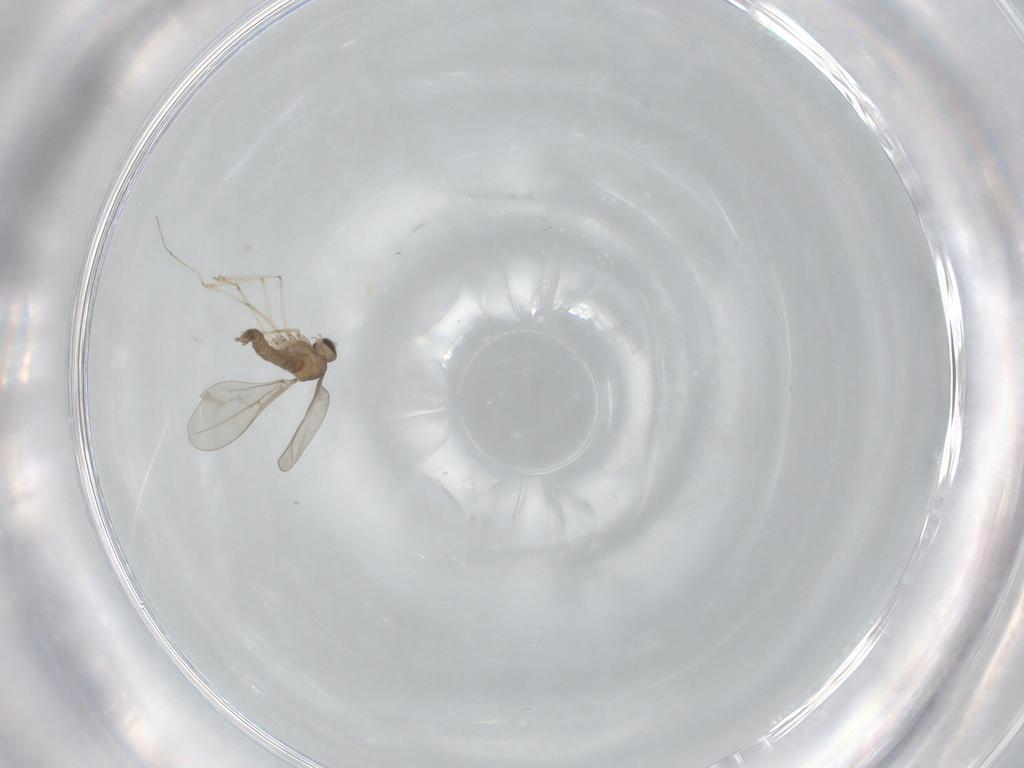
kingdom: Animalia
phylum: Arthropoda
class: Insecta
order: Diptera
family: Cecidomyiidae
